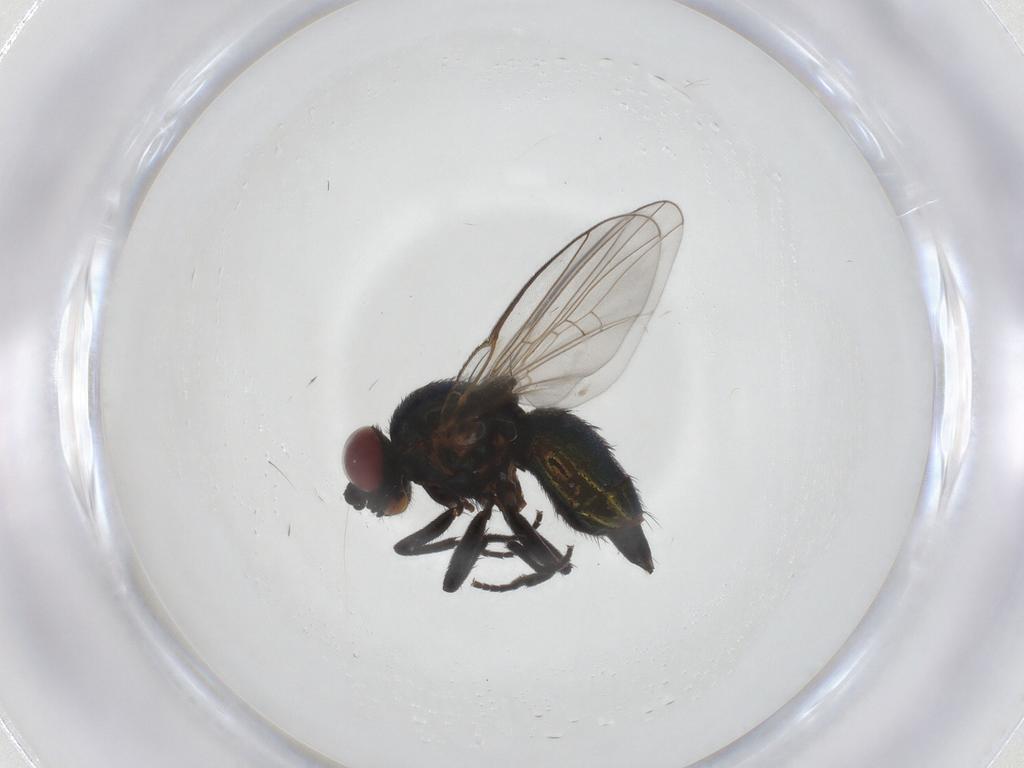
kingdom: Animalia
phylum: Arthropoda
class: Insecta
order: Diptera
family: Agromyzidae
